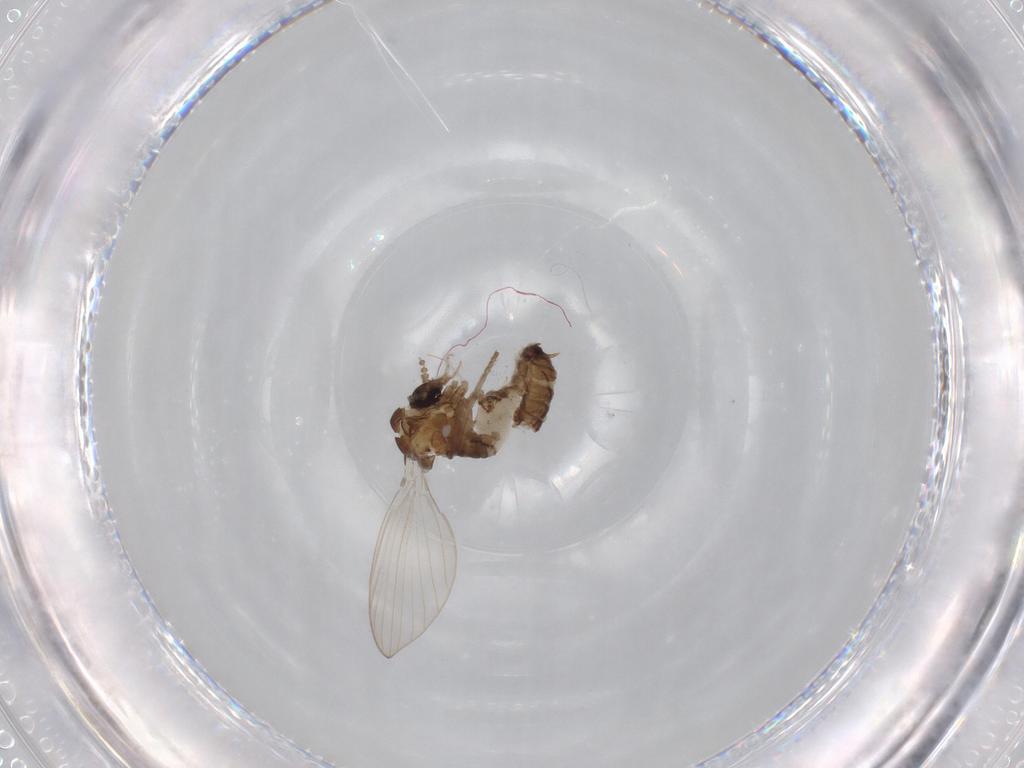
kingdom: Animalia
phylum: Arthropoda
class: Insecta
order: Diptera
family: Psychodidae
